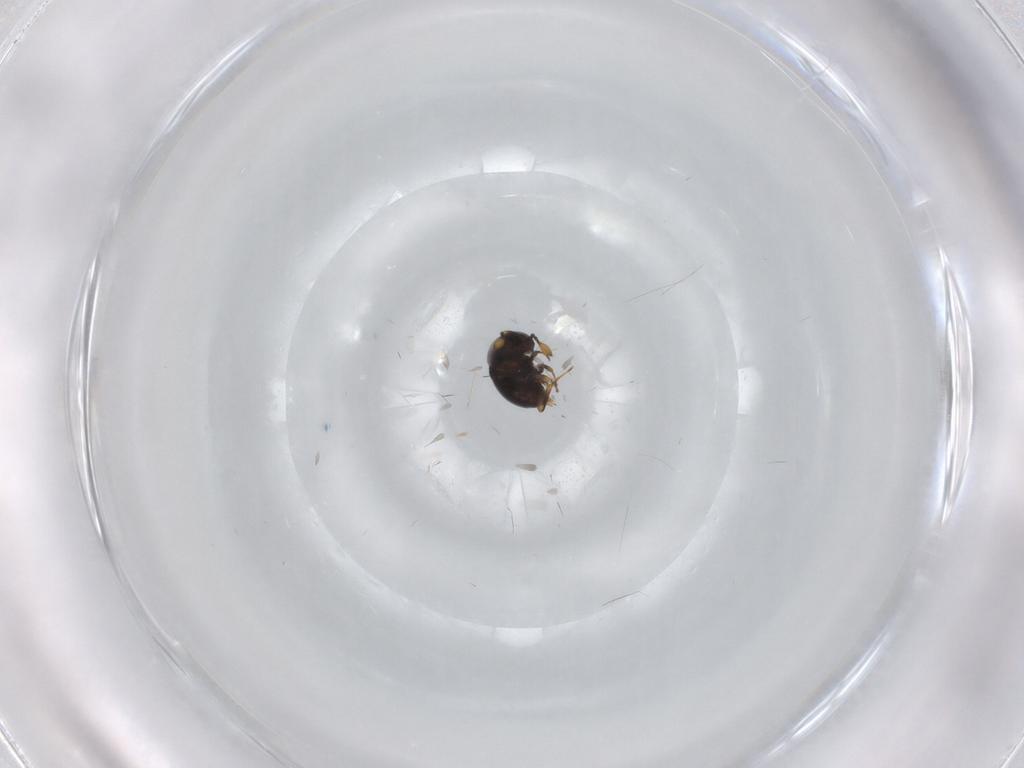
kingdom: Animalia
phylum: Arthropoda
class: Insecta
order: Hymenoptera
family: Scelionidae
